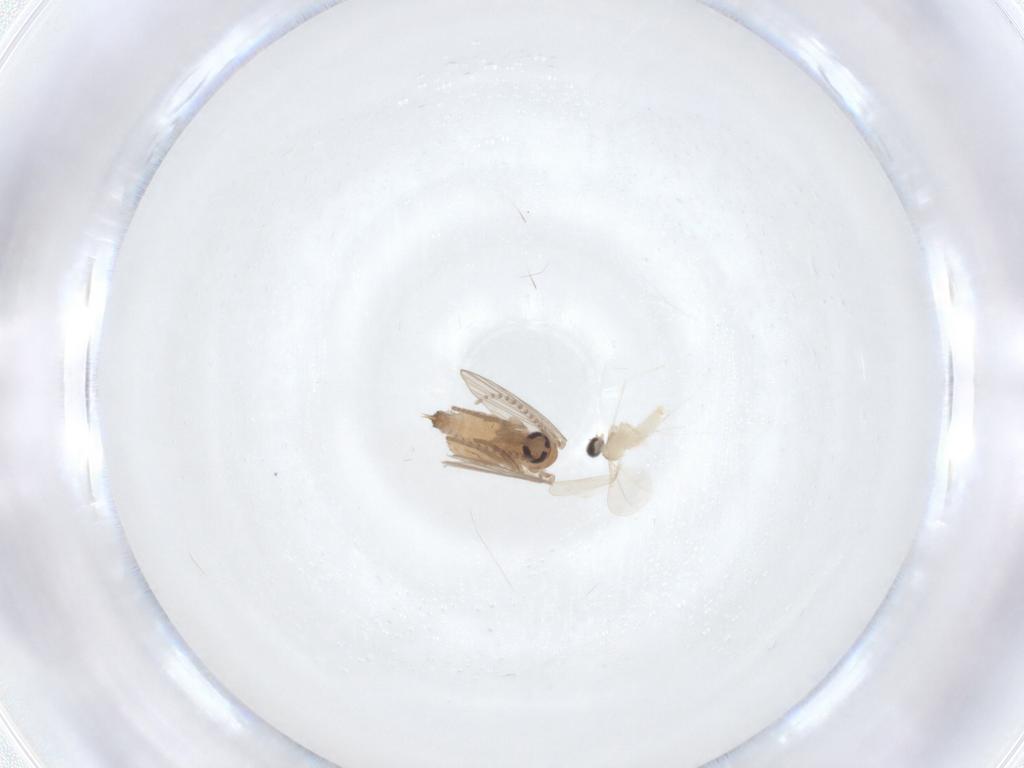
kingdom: Animalia
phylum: Arthropoda
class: Insecta
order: Diptera
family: Psychodidae
